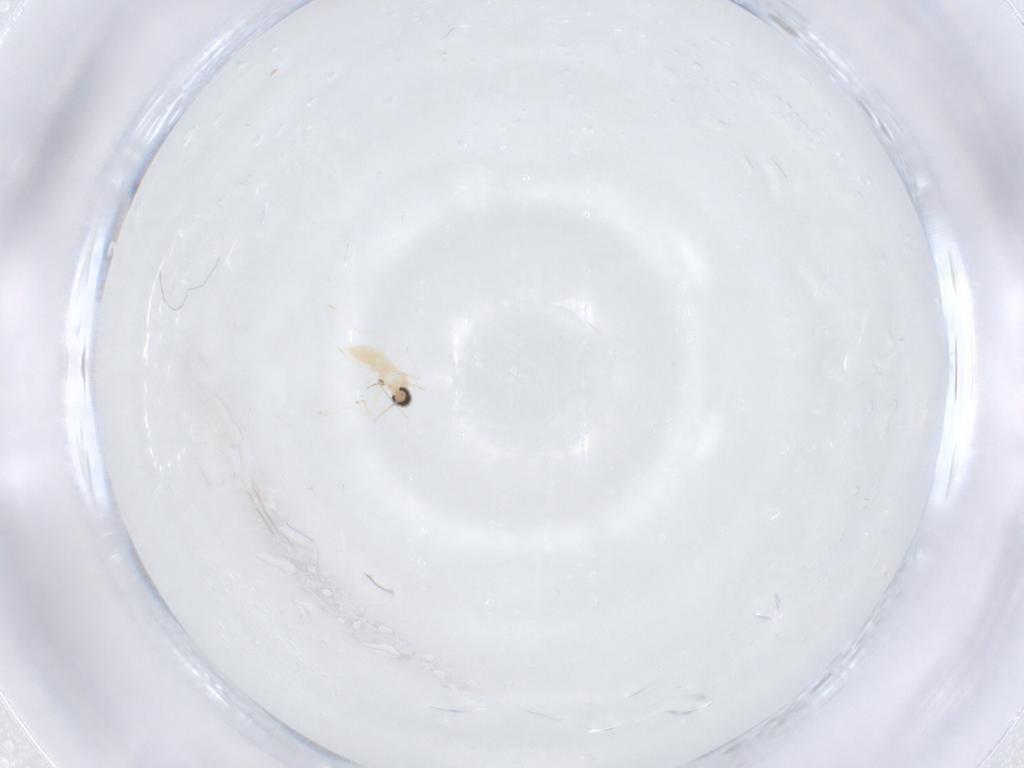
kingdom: Animalia
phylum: Arthropoda
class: Insecta
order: Diptera
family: Cecidomyiidae
